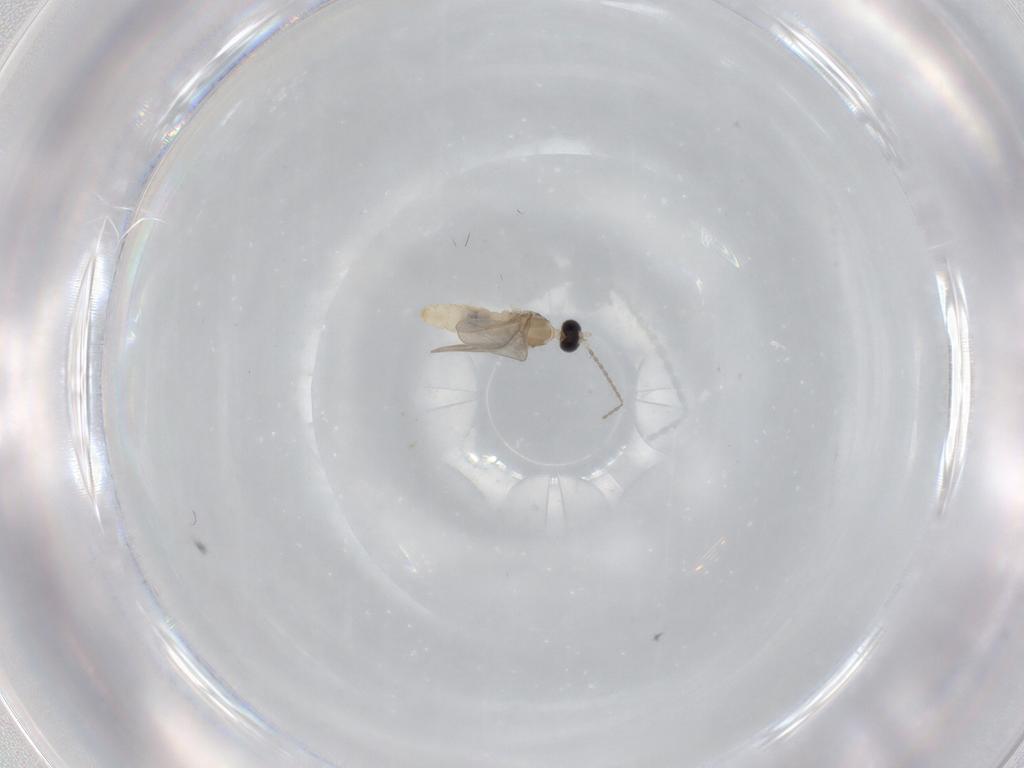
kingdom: Animalia
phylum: Arthropoda
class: Insecta
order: Diptera
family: Cecidomyiidae
